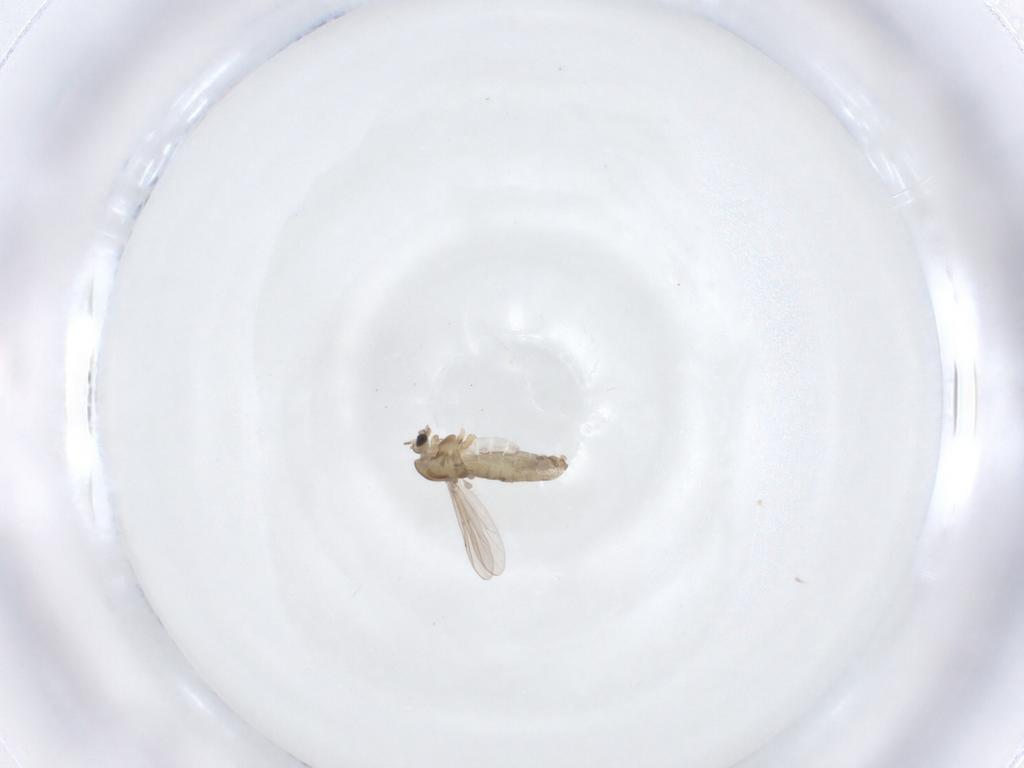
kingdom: Animalia
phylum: Arthropoda
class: Insecta
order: Diptera
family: Chironomidae
